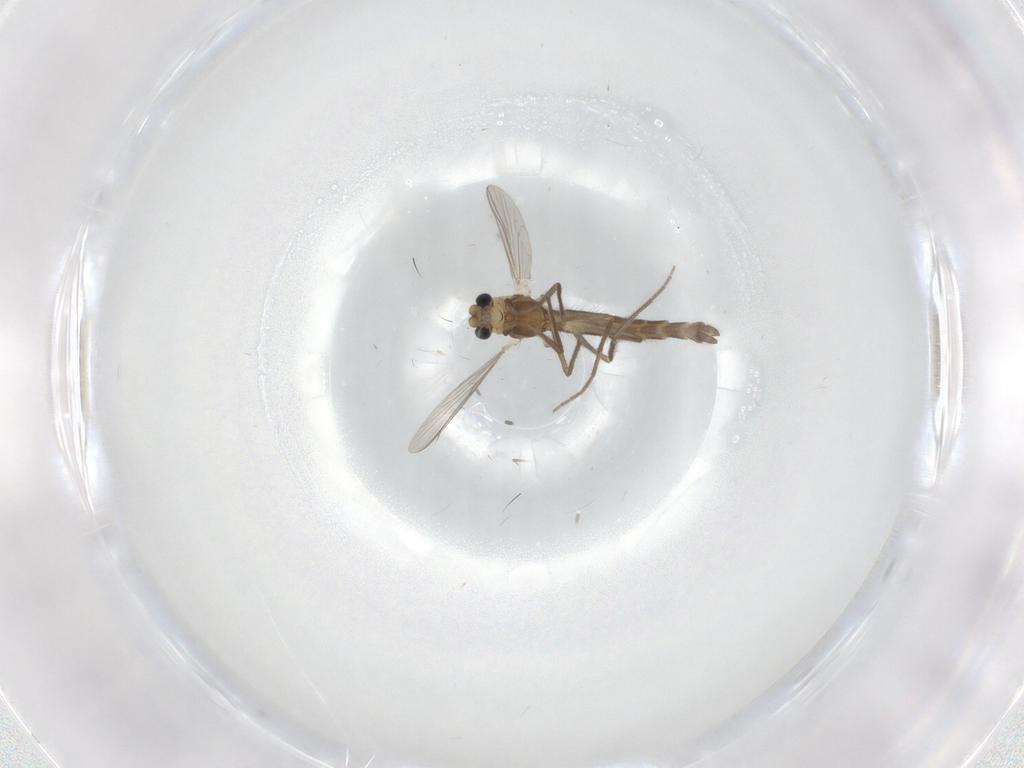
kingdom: Animalia
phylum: Arthropoda
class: Insecta
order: Diptera
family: Chironomidae
